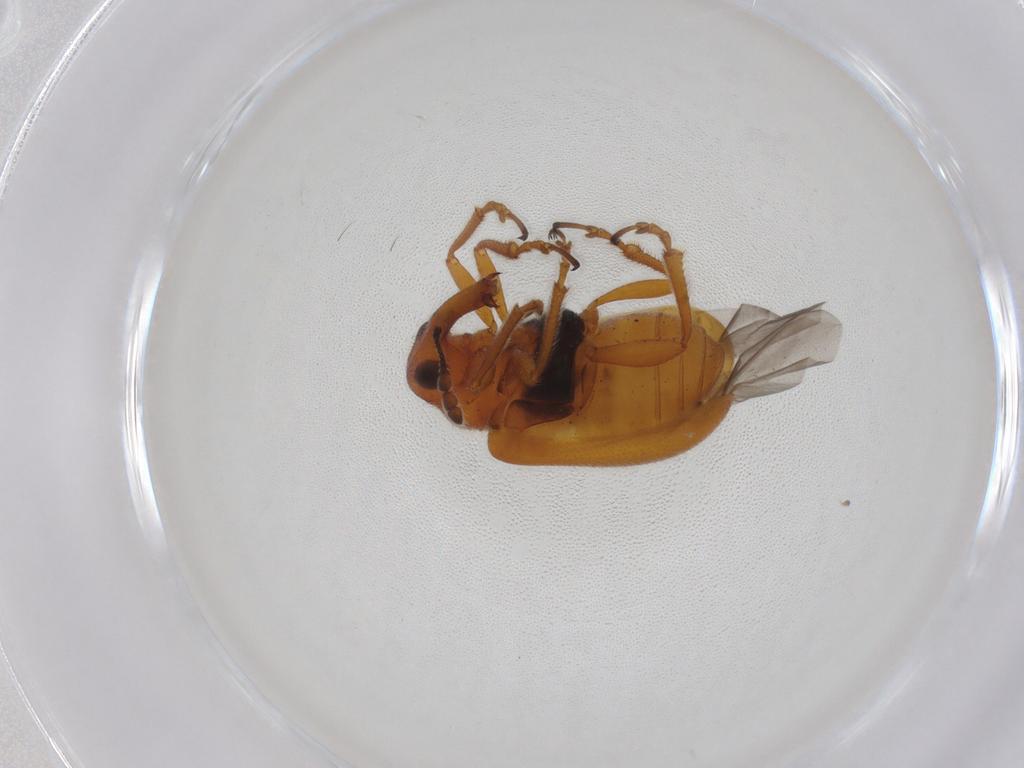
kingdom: Animalia
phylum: Arthropoda
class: Insecta
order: Coleoptera
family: Attelabidae
